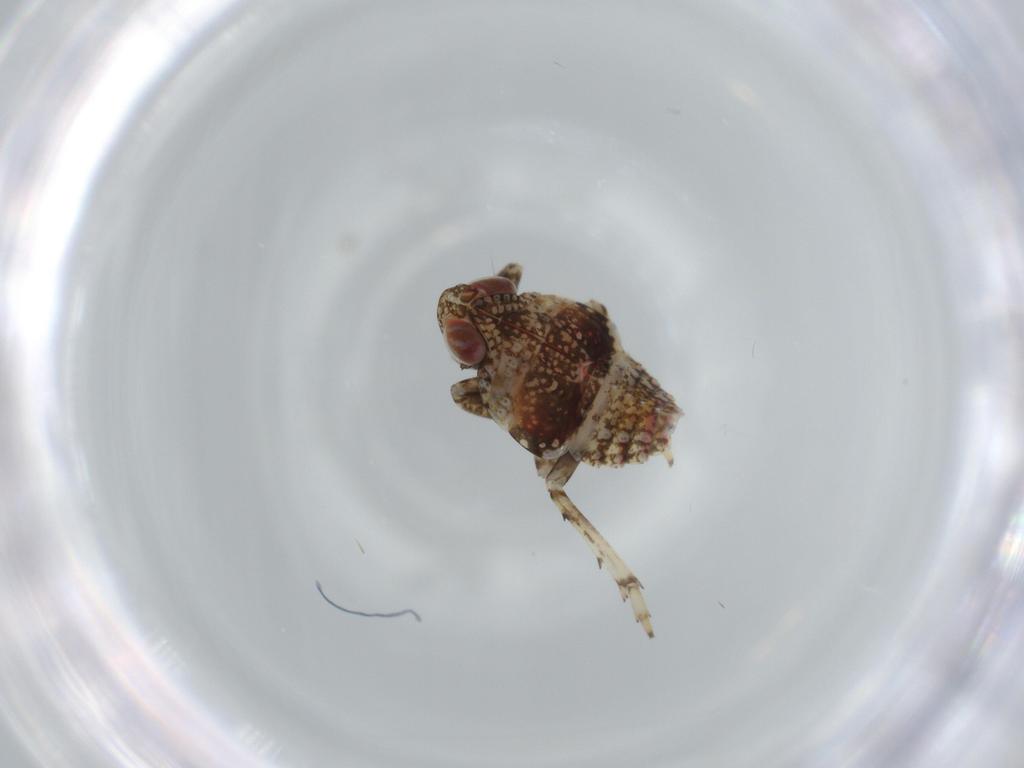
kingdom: Animalia
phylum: Arthropoda
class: Insecta
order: Hemiptera
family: Issidae
